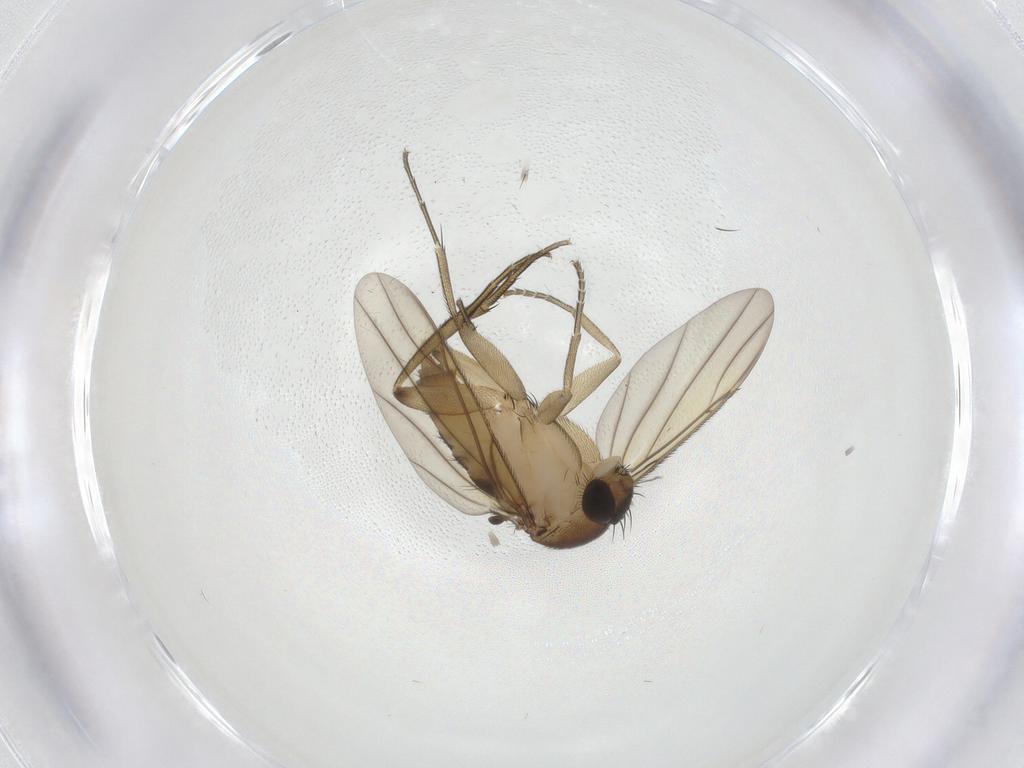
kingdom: Animalia
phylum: Arthropoda
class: Insecta
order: Diptera
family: Phoridae
